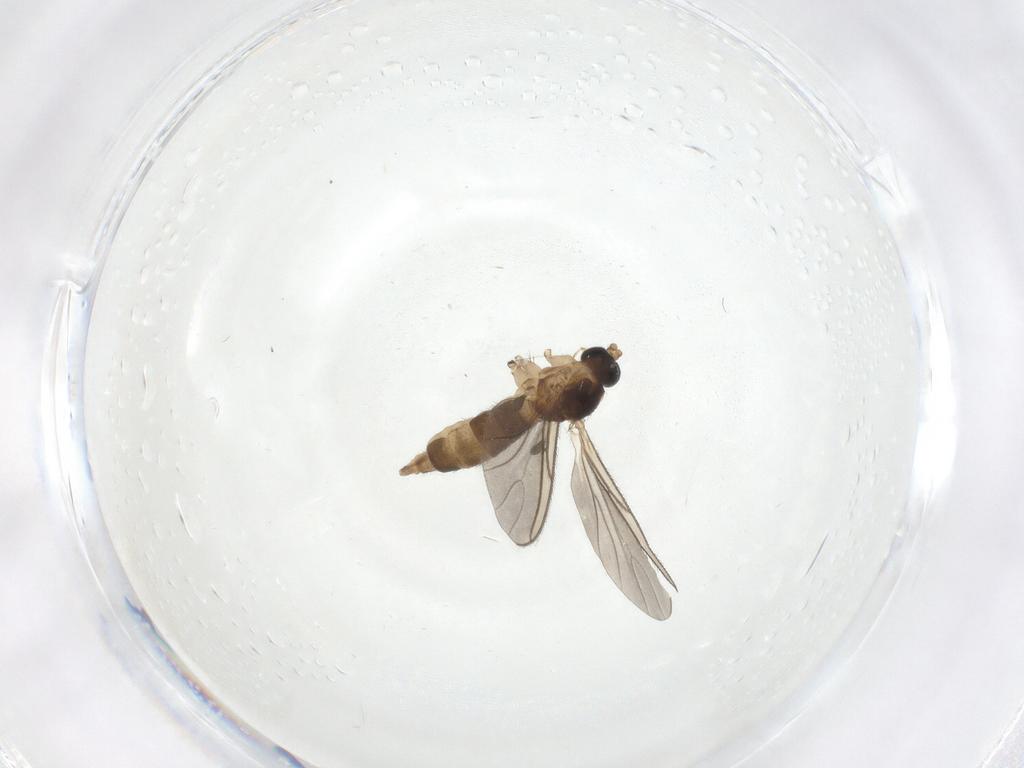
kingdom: Animalia
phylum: Arthropoda
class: Insecta
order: Diptera
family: Sciaridae
